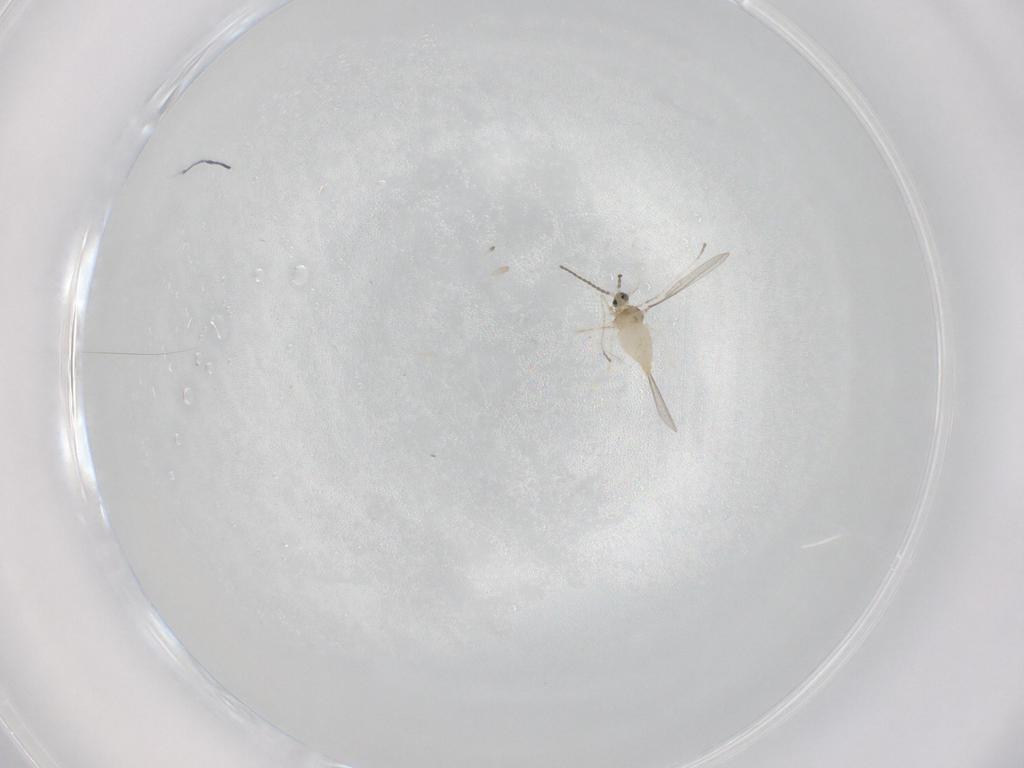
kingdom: Animalia
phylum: Arthropoda
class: Insecta
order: Diptera
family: Cecidomyiidae
